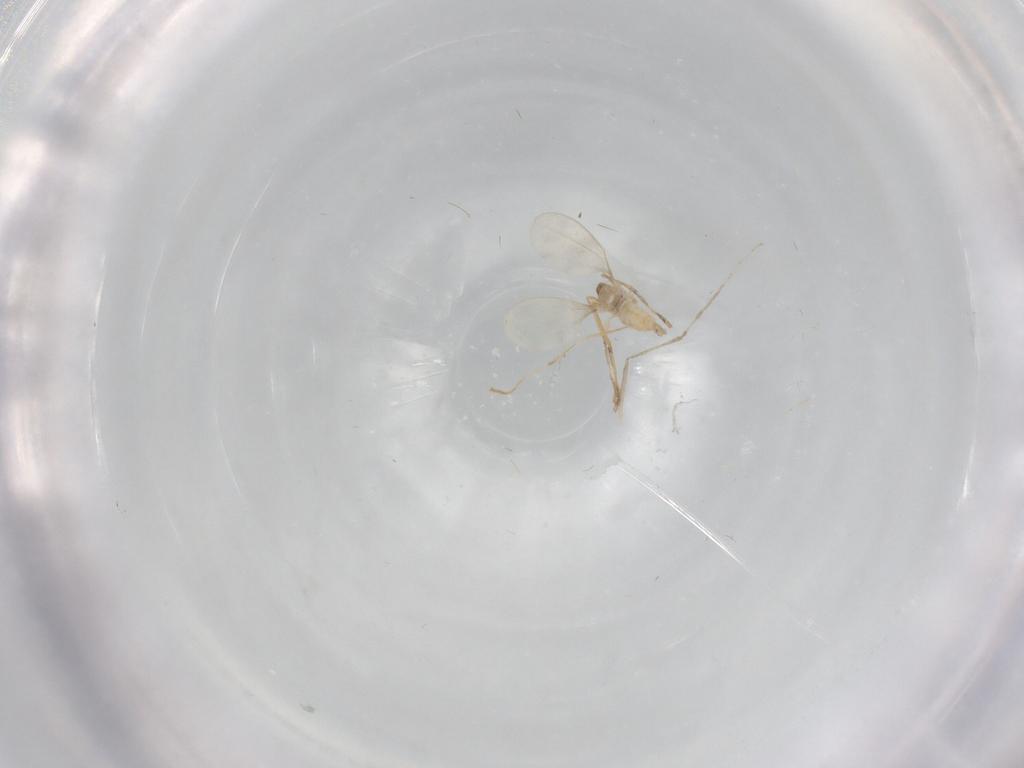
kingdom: Animalia
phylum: Arthropoda
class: Insecta
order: Diptera
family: Cecidomyiidae
